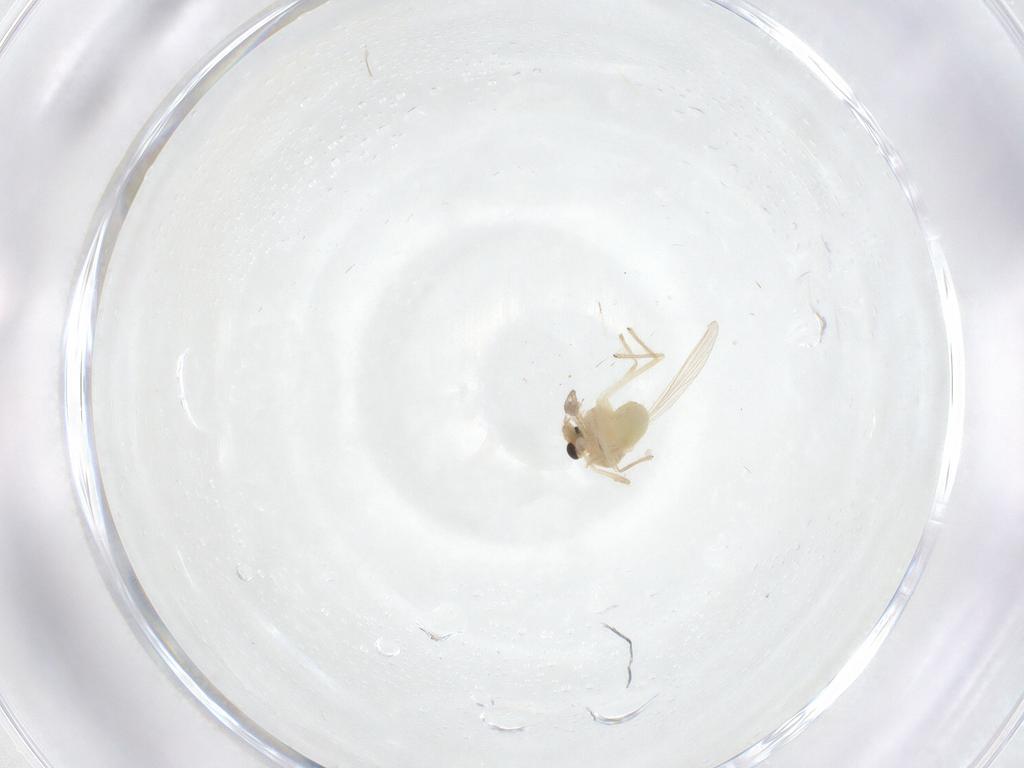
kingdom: Animalia
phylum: Arthropoda
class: Insecta
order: Diptera
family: Chironomidae
